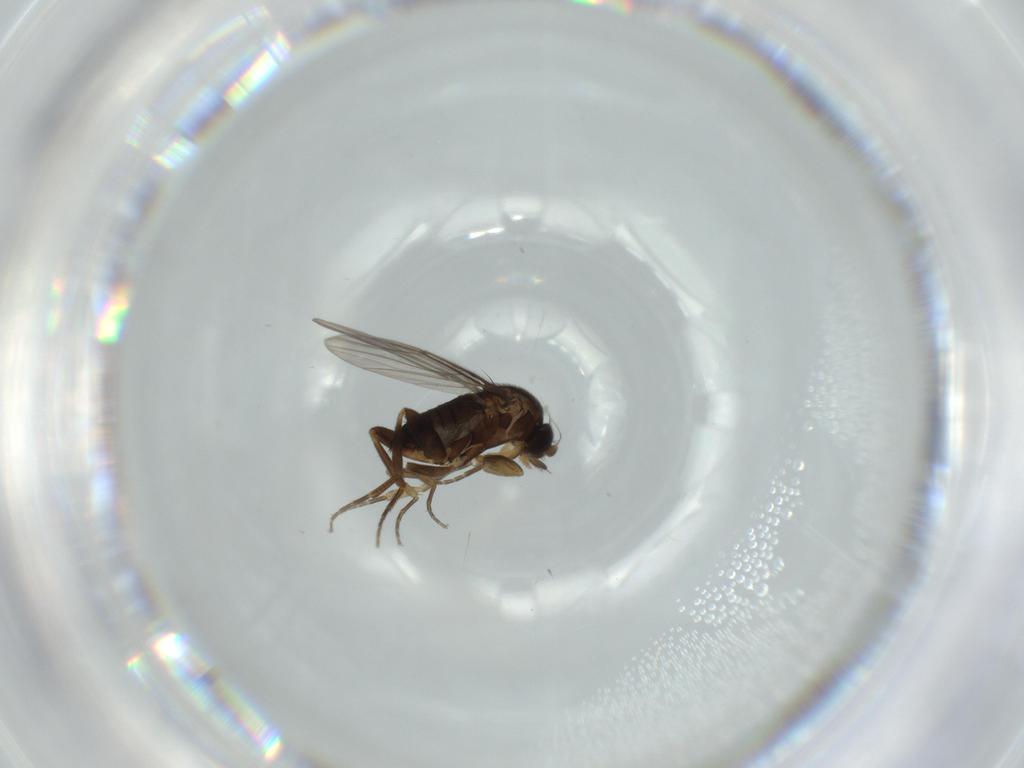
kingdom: Animalia
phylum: Arthropoda
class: Insecta
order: Diptera
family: Phoridae
